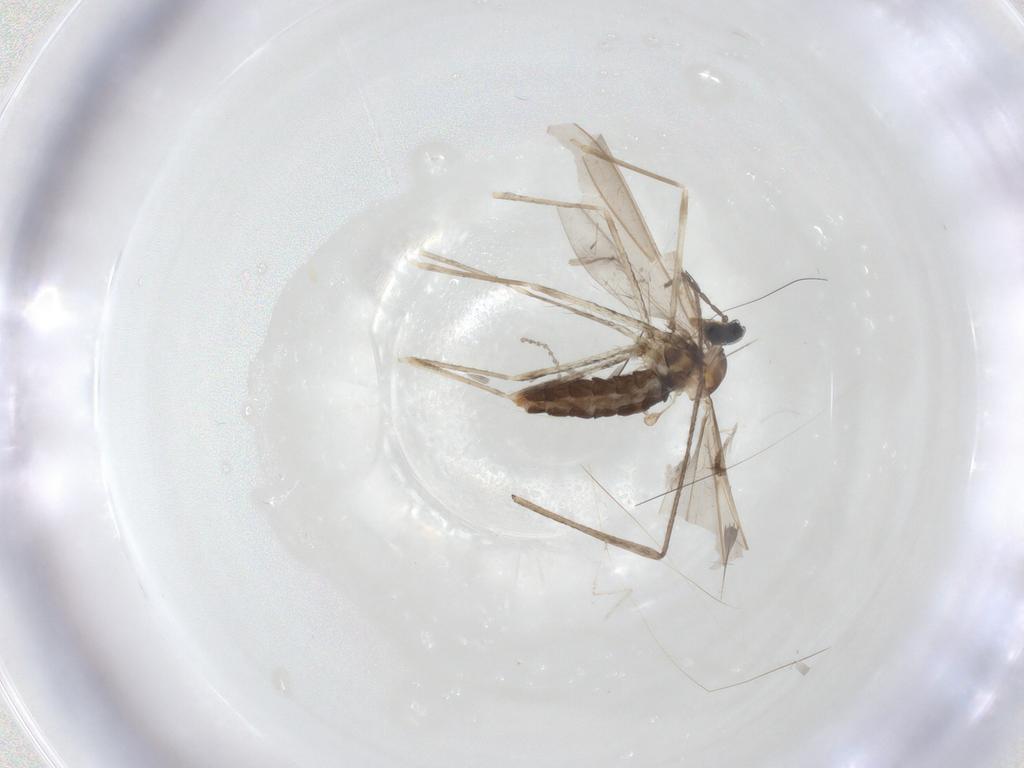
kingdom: Animalia
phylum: Arthropoda
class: Insecta
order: Diptera
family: Cecidomyiidae
